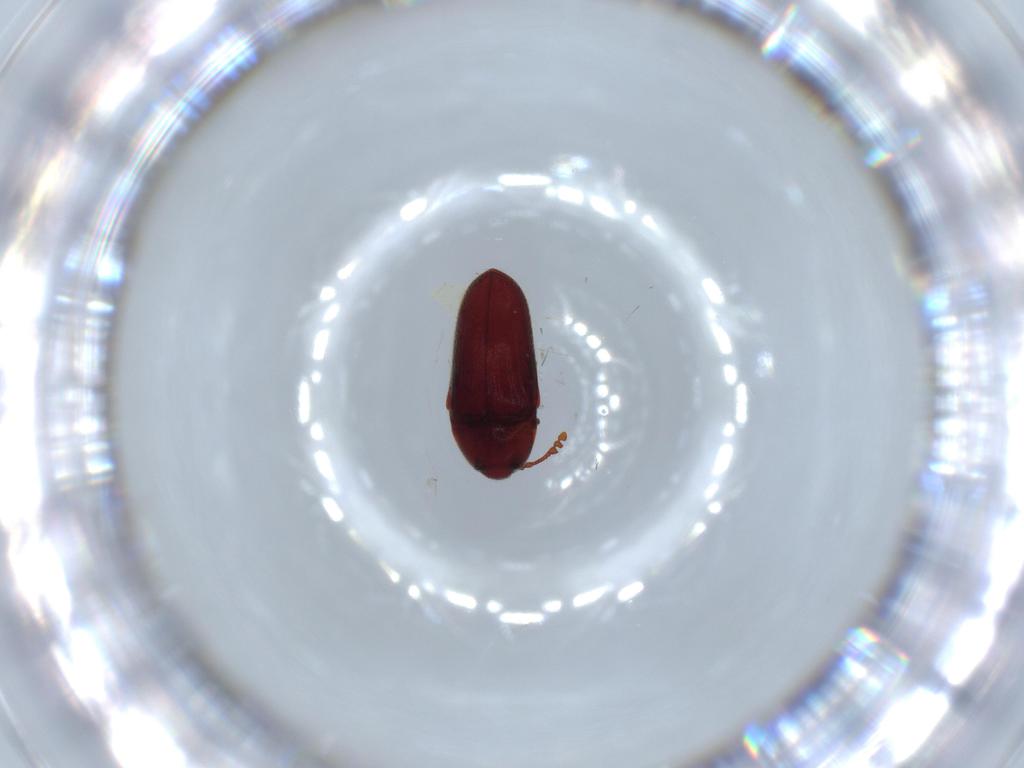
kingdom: Animalia
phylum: Arthropoda
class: Insecta
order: Coleoptera
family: Throscidae
